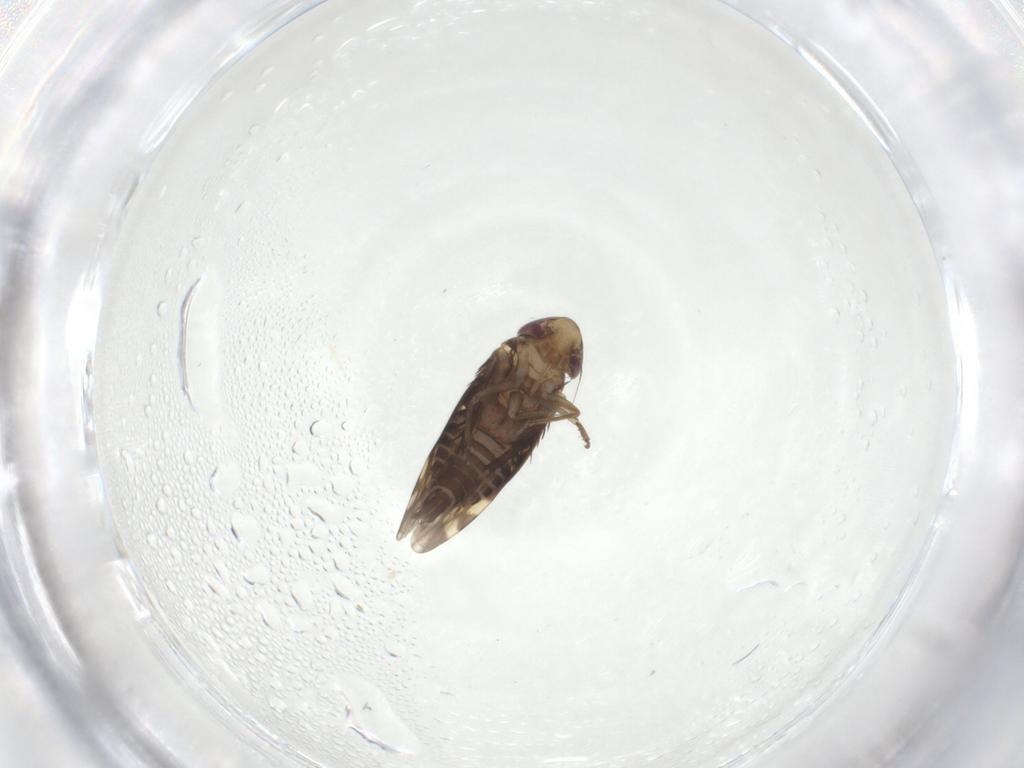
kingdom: Animalia
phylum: Arthropoda
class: Insecta
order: Hemiptera
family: Cicadellidae
